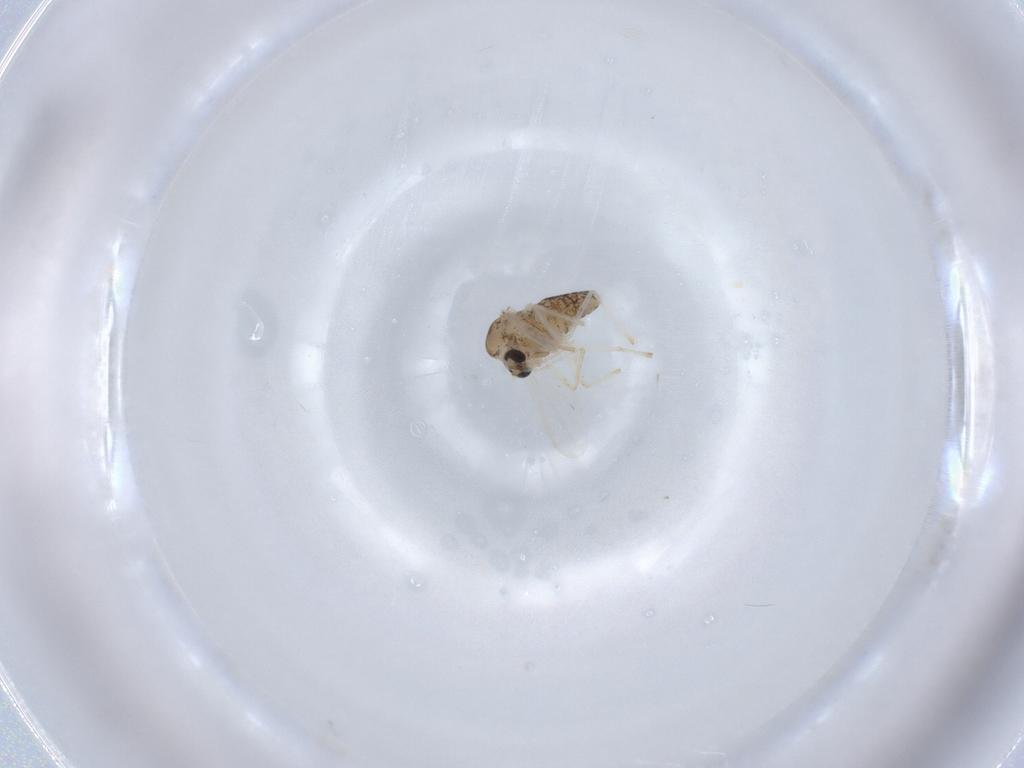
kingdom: Animalia
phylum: Arthropoda
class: Insecta
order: Diptera
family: Chironomidae
